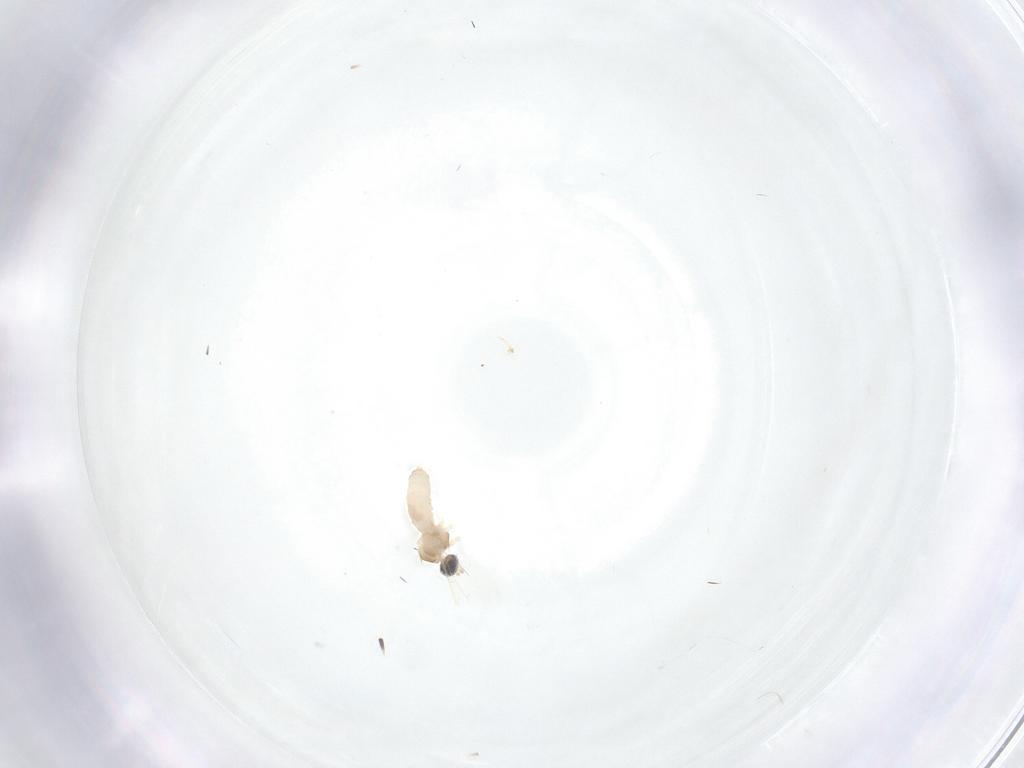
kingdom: Animalia
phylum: Arthropoda
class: Insecta
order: Diptera
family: Cecidomyiidae
